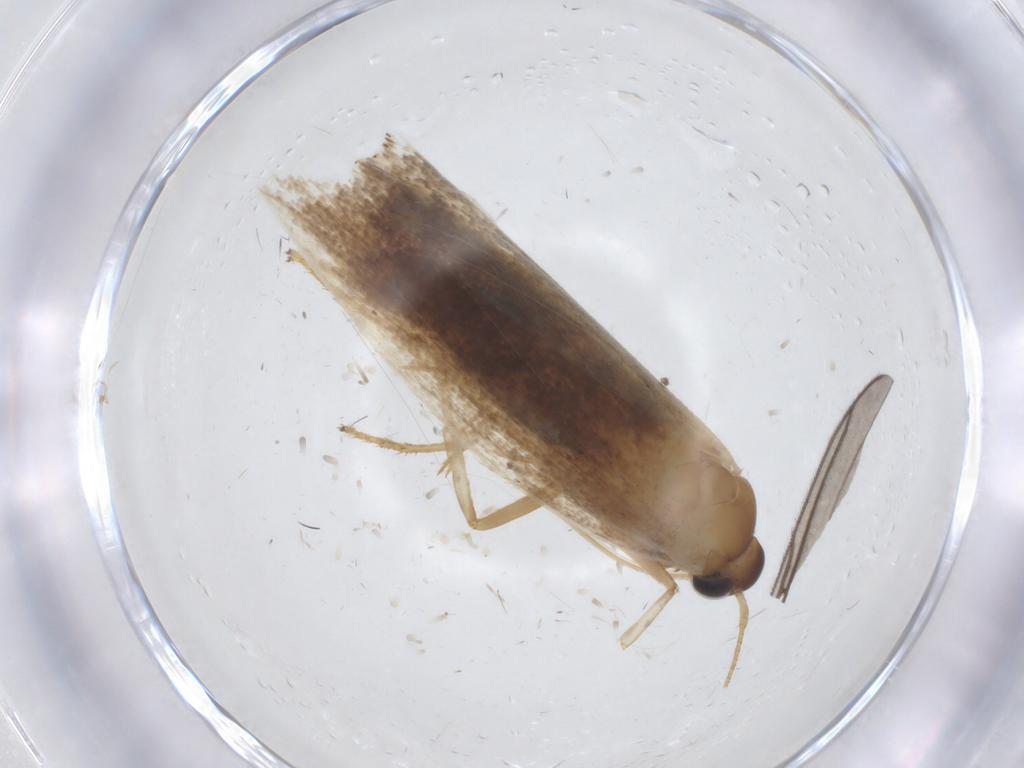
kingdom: Animalia
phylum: Arthropoda
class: Insecta
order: Lepidoptera
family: Oecophoridae
